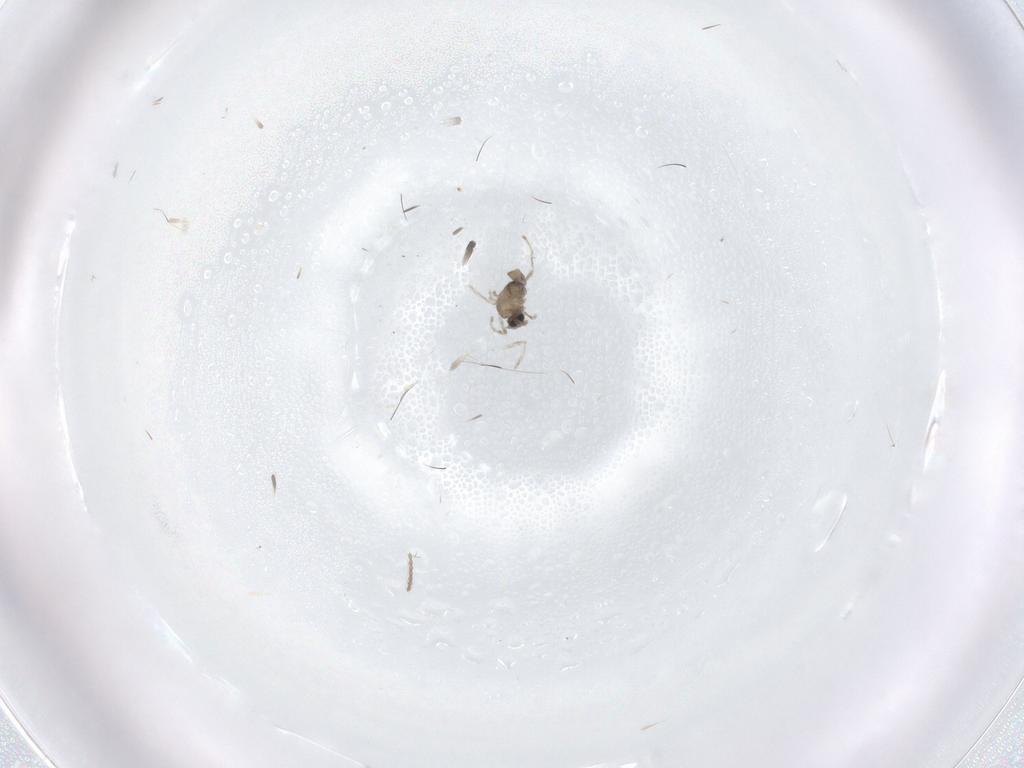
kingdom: Animalia
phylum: Arthropoda
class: Insecta
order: Diptera
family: Cecidomyiidae
